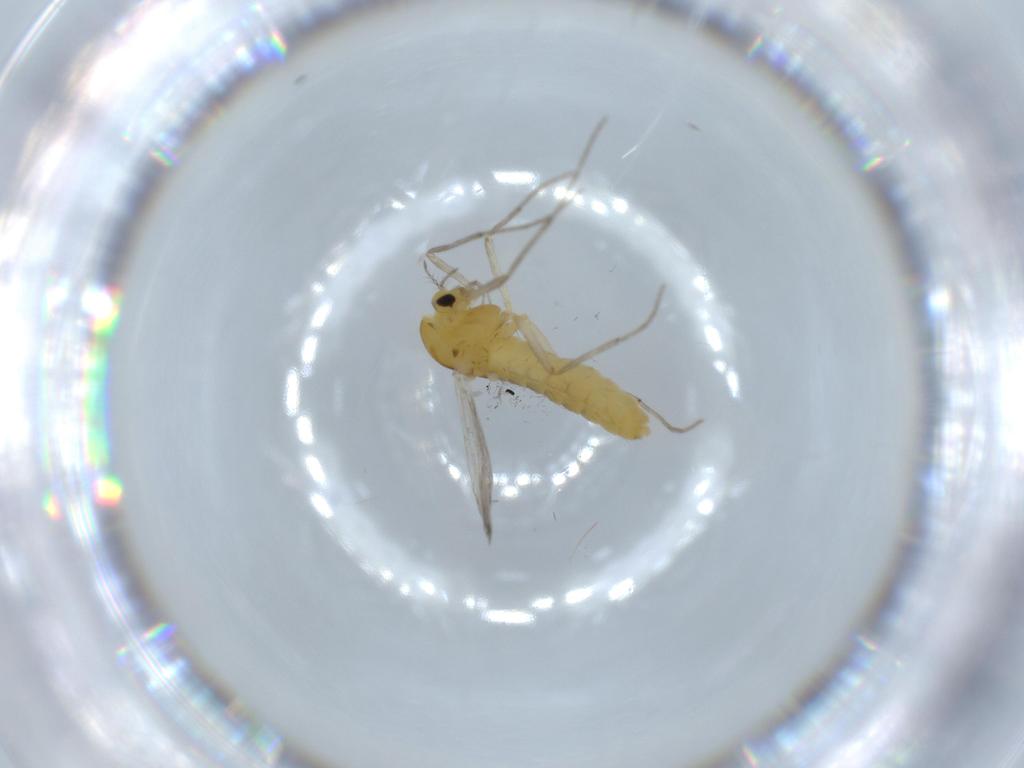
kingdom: Animalia
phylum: Arthropoda
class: Insecta
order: Diptera
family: Chironomidae
